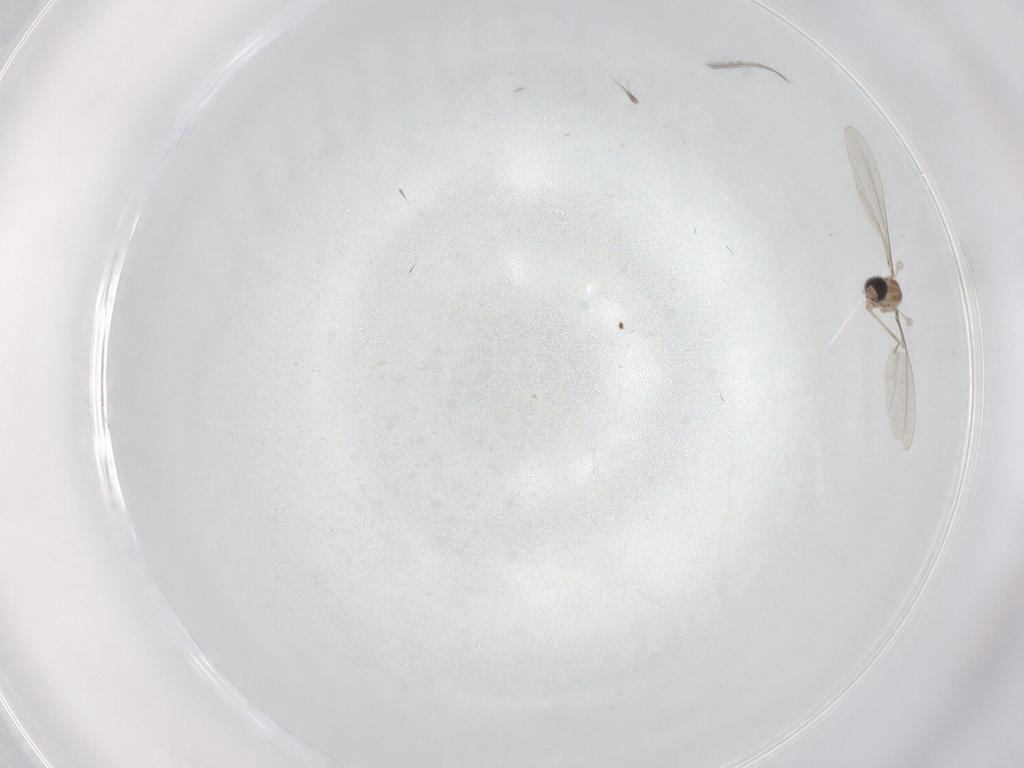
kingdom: Animalia
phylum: Arthropoda
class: Insecta
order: Diptera
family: Cecidomyiidae
